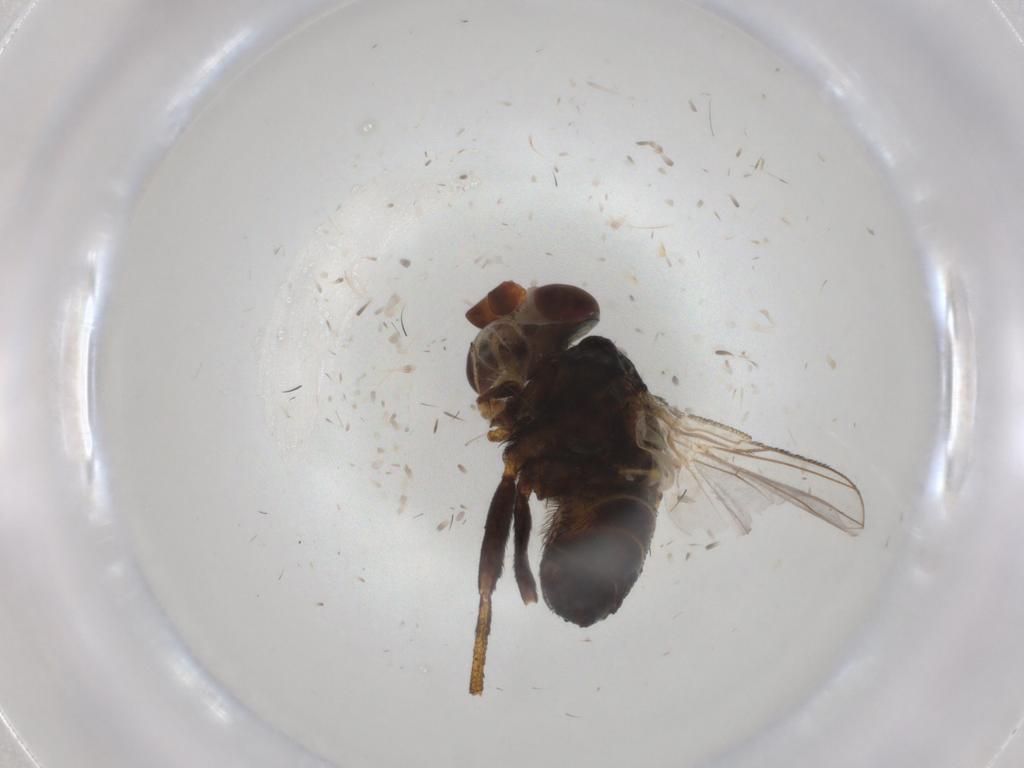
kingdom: Animalia
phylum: Arthropoda
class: Insecta
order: Diptera
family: Glossinidae
